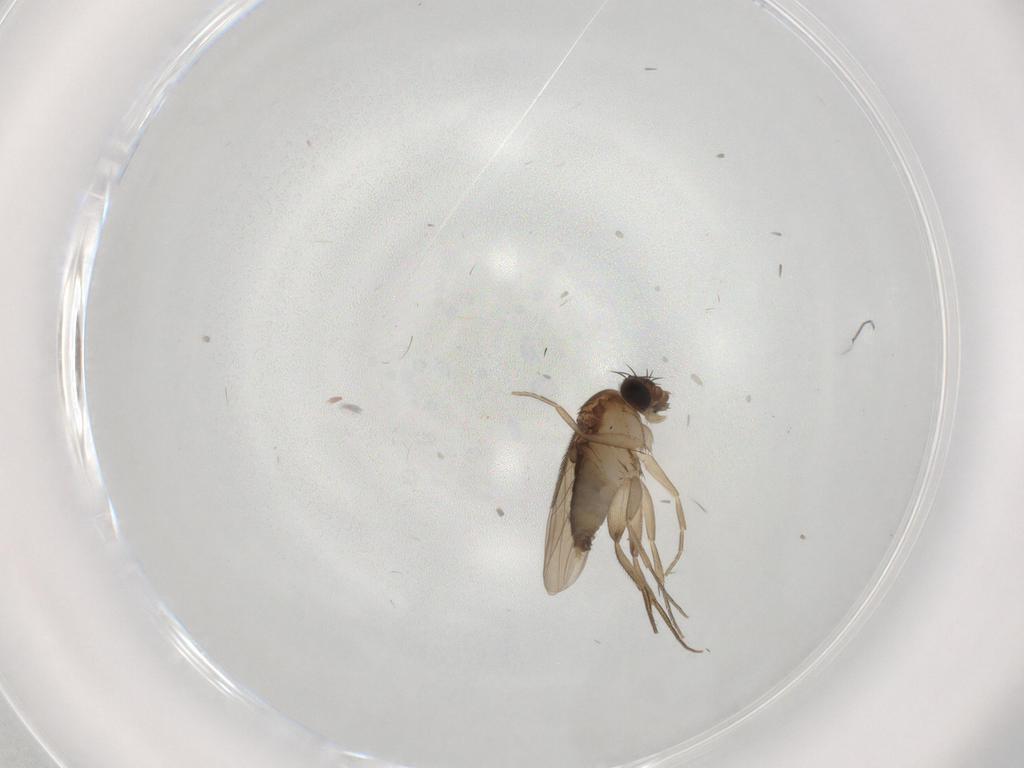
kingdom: Animalia
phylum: Arthropoda
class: Insecta
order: Diptera
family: Phoridae
